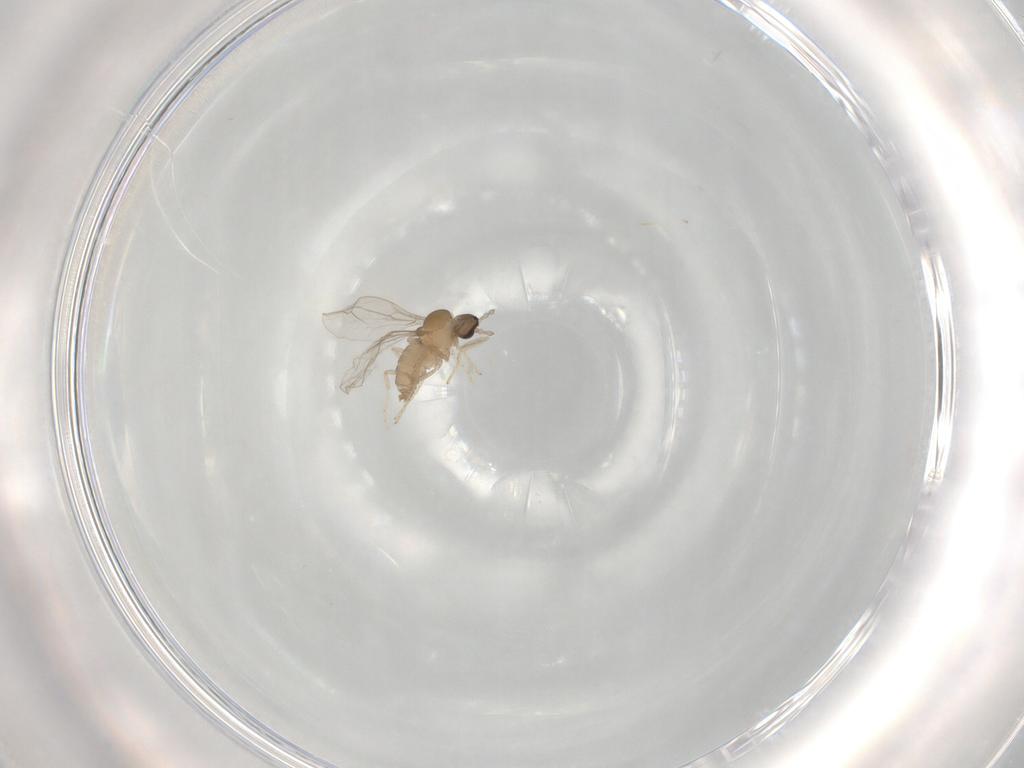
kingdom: Animalia
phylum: Arthropoda
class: Insecta
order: Diptera
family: Cecidomyiidae
